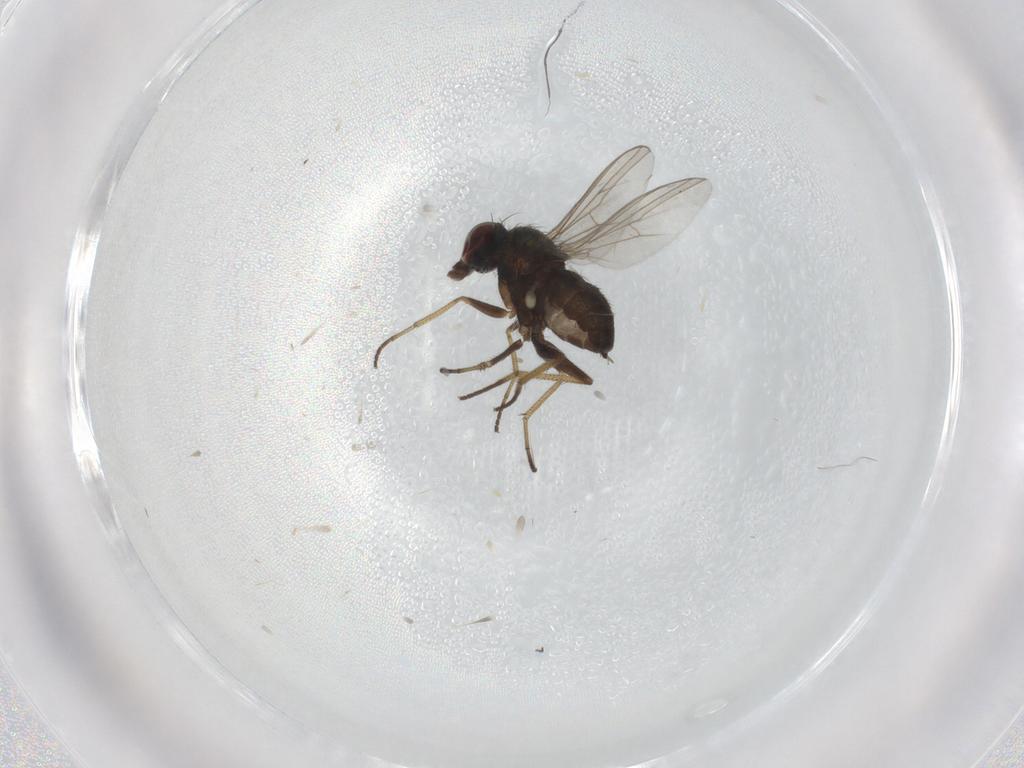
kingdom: Animalia
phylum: Arthropoda
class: Insecta
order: Diptera
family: Dolichopodidae
